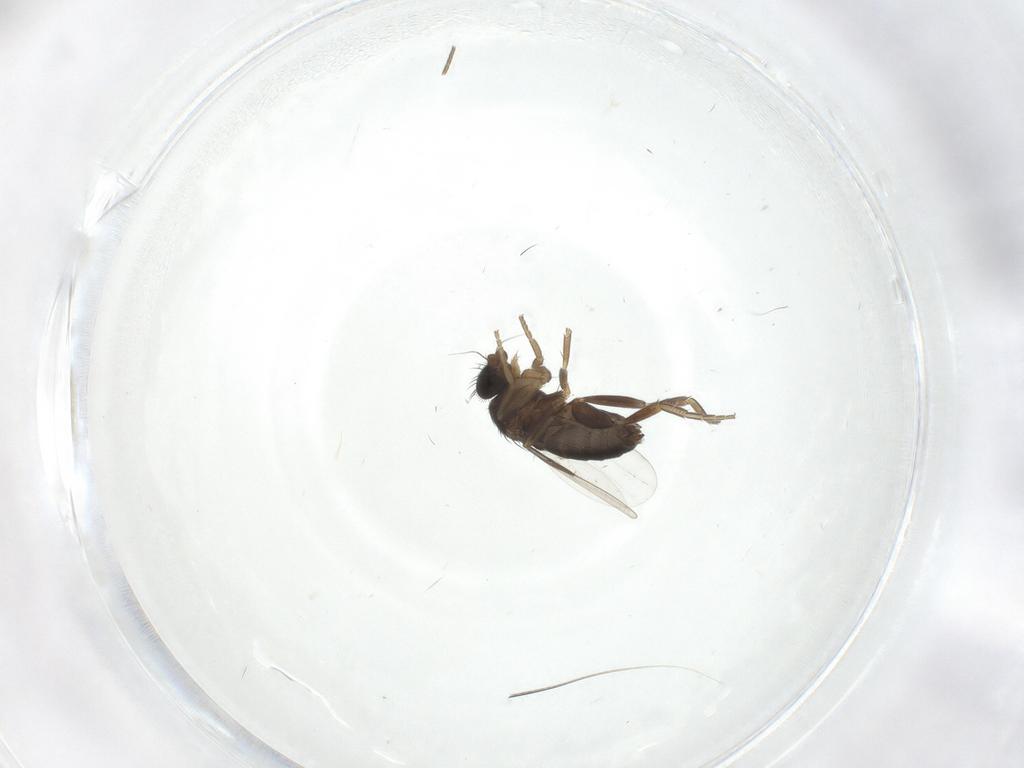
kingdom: Animalia
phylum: Arthropoda
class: Insecta
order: Diptera
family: Phoridae
